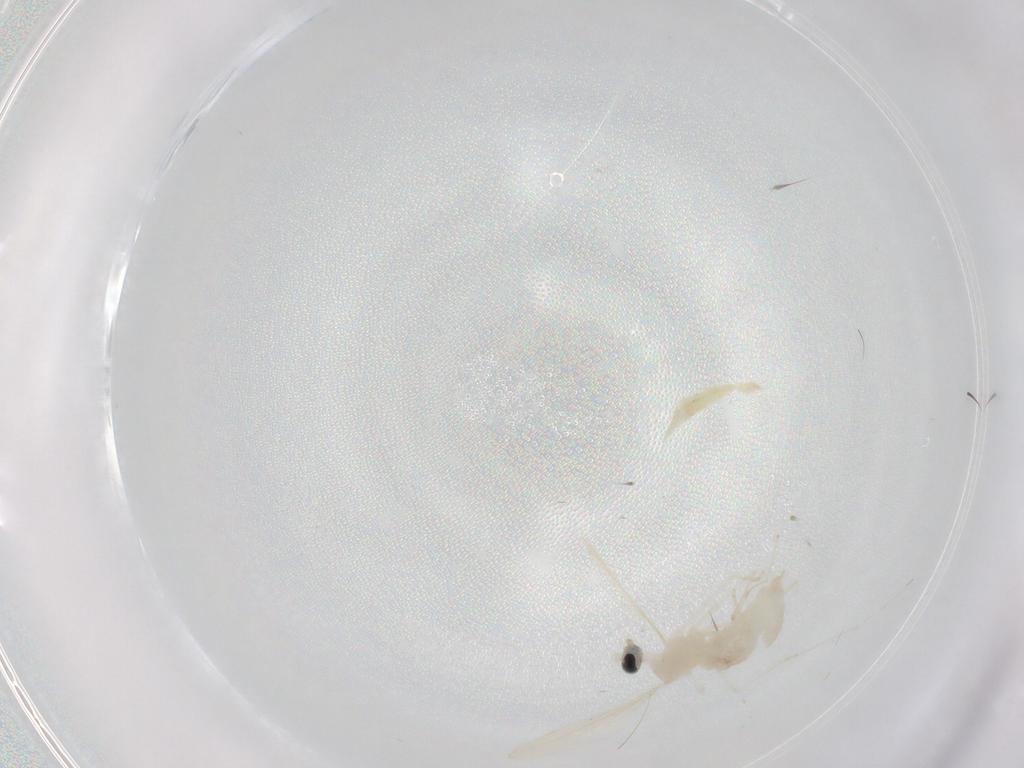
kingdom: Animalia
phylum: Arthropoda
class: Insecta
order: Diptera
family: Cecidomyiidae
